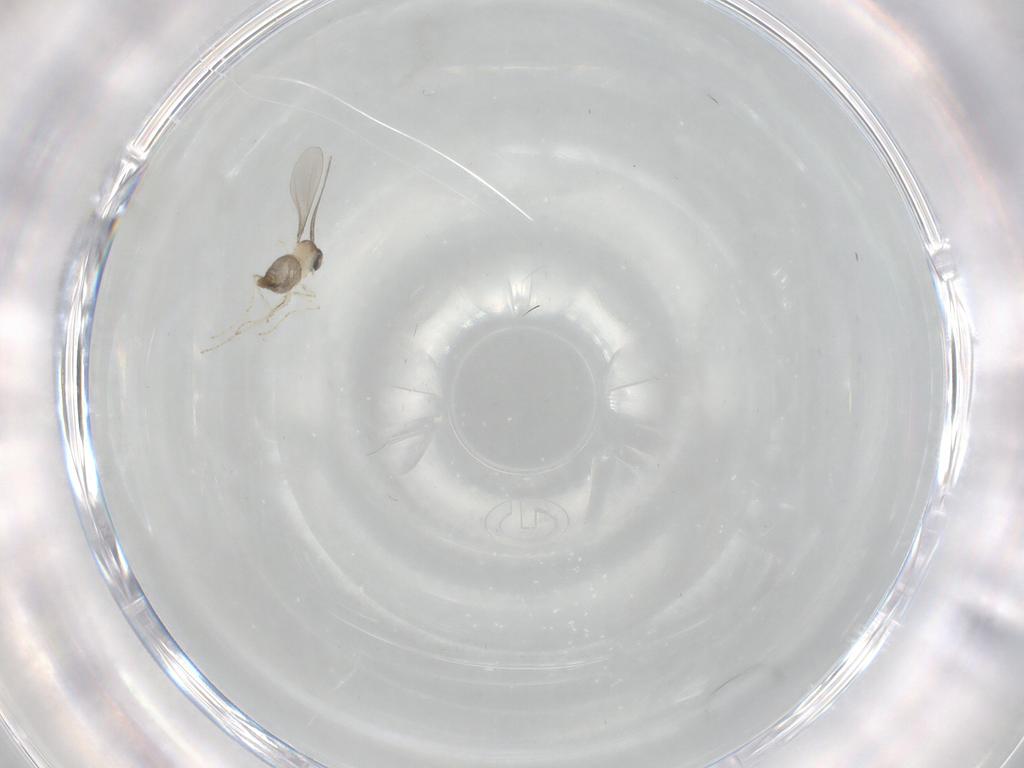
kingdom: Animalia
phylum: Arthropoda
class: Insecta
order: Diptera
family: Cecidomyiidae
